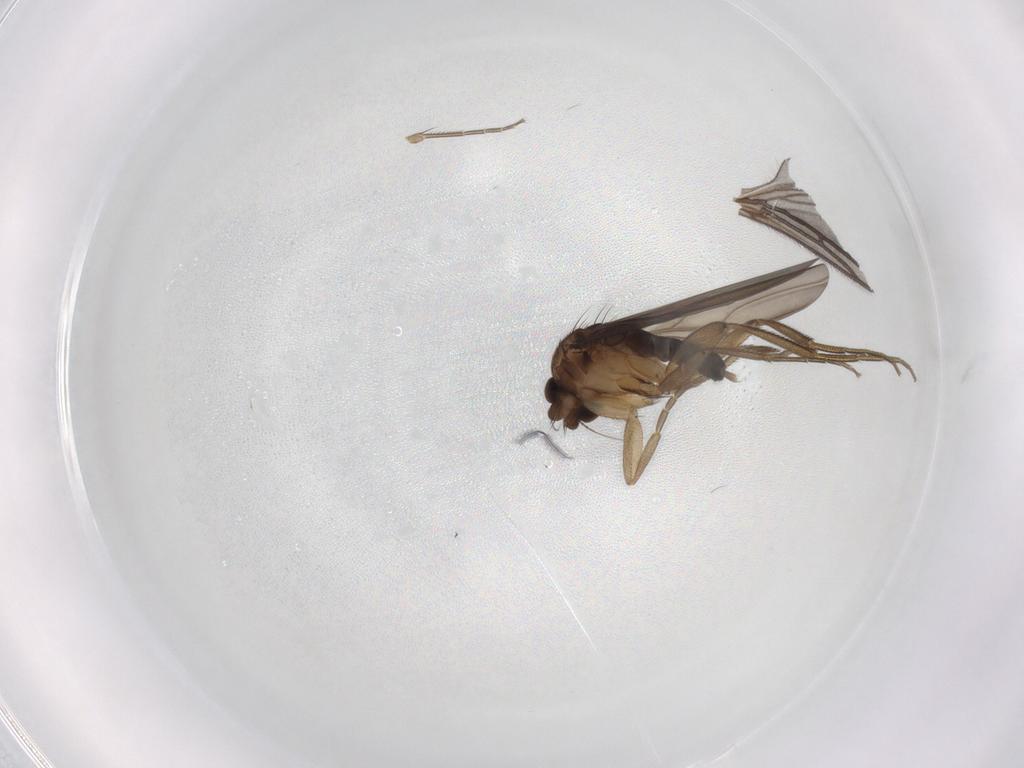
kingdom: Animalia
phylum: Arthropoda
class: Insecta
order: Diptera
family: Phoridae
